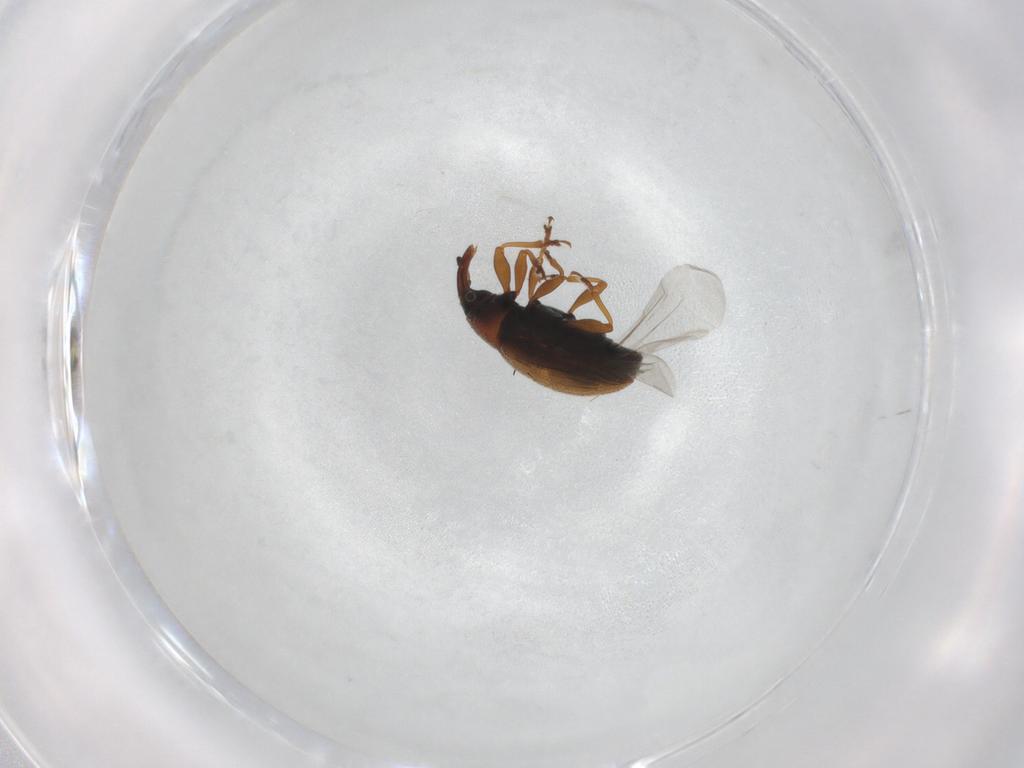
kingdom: Animalia
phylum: Arthropoda
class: Insecta
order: Coleoptera
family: Curculionidae
